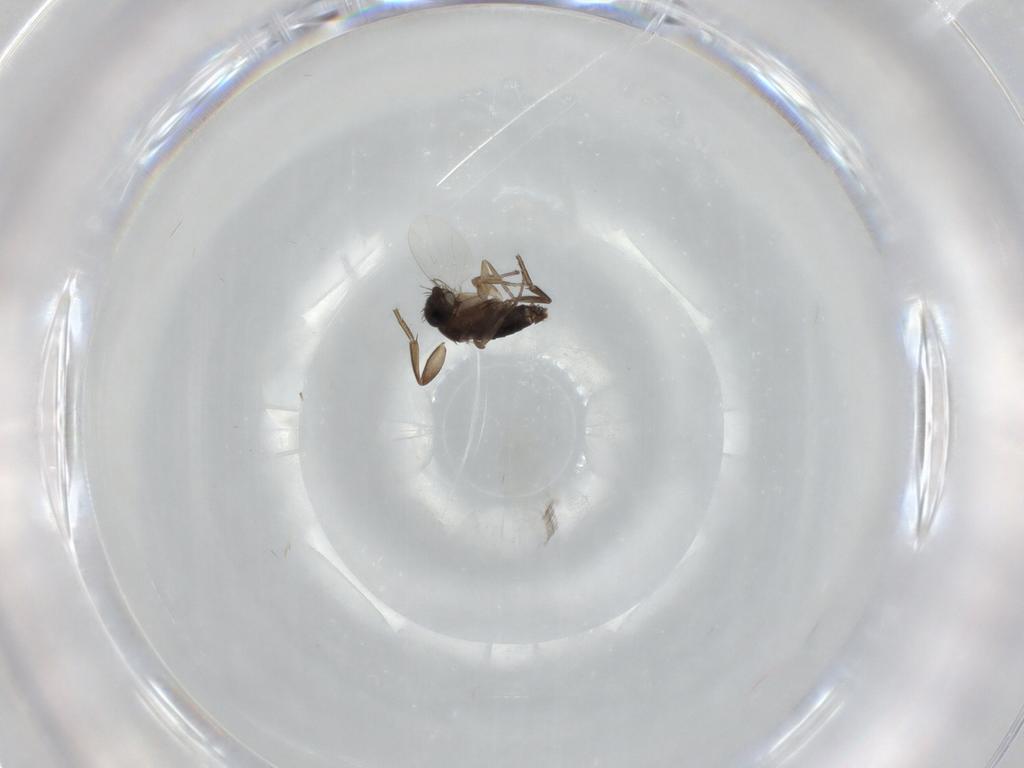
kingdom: Animalia
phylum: Arthropoda
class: Insecta
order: Diptera
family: Phoridae
